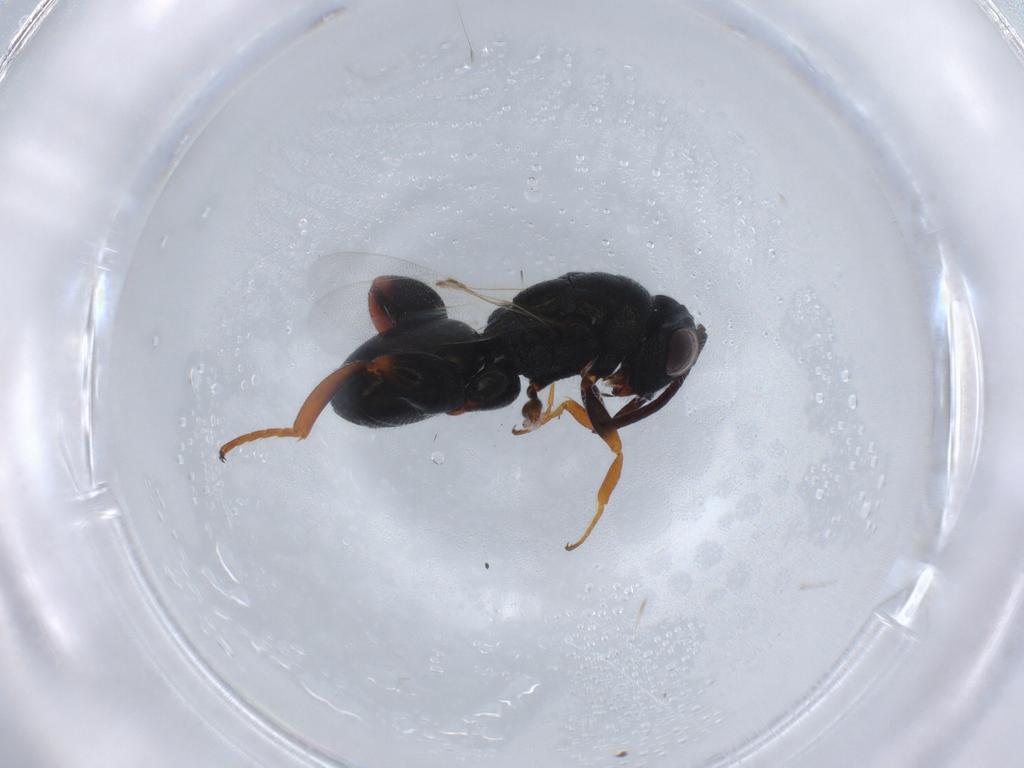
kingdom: Animalia
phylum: Arthropoda
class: Insecta
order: Hymenoptera
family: Chalcididae
